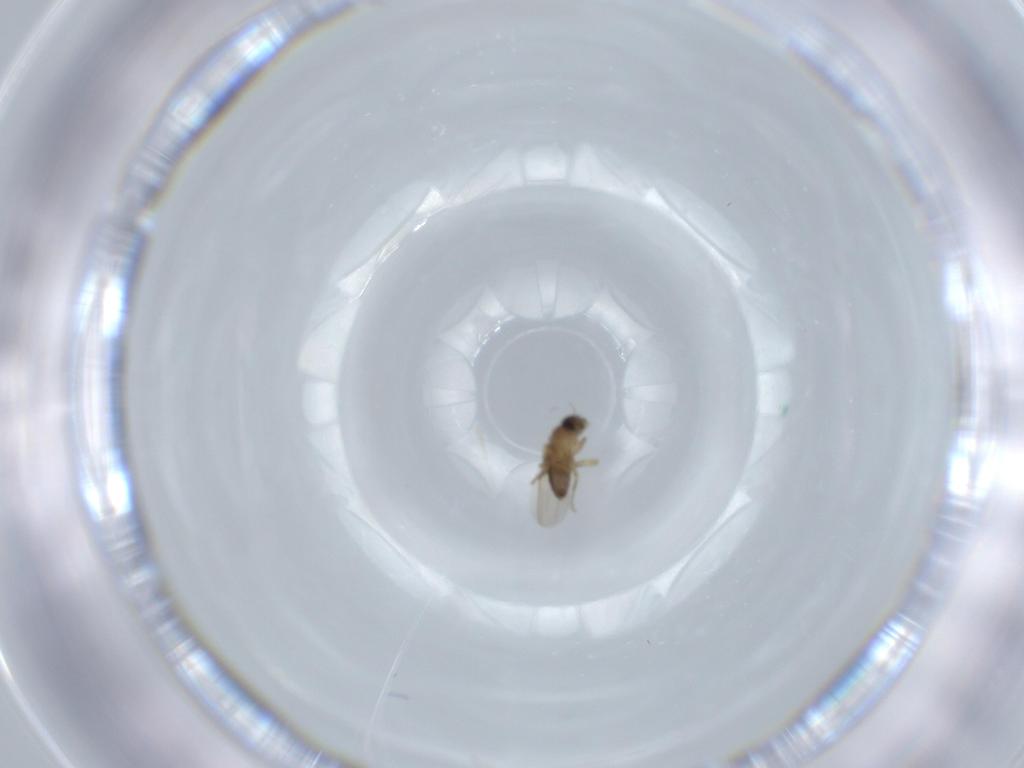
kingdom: Animalia
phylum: Arthropoda
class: Insecta
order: Diptera
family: Phoridae
